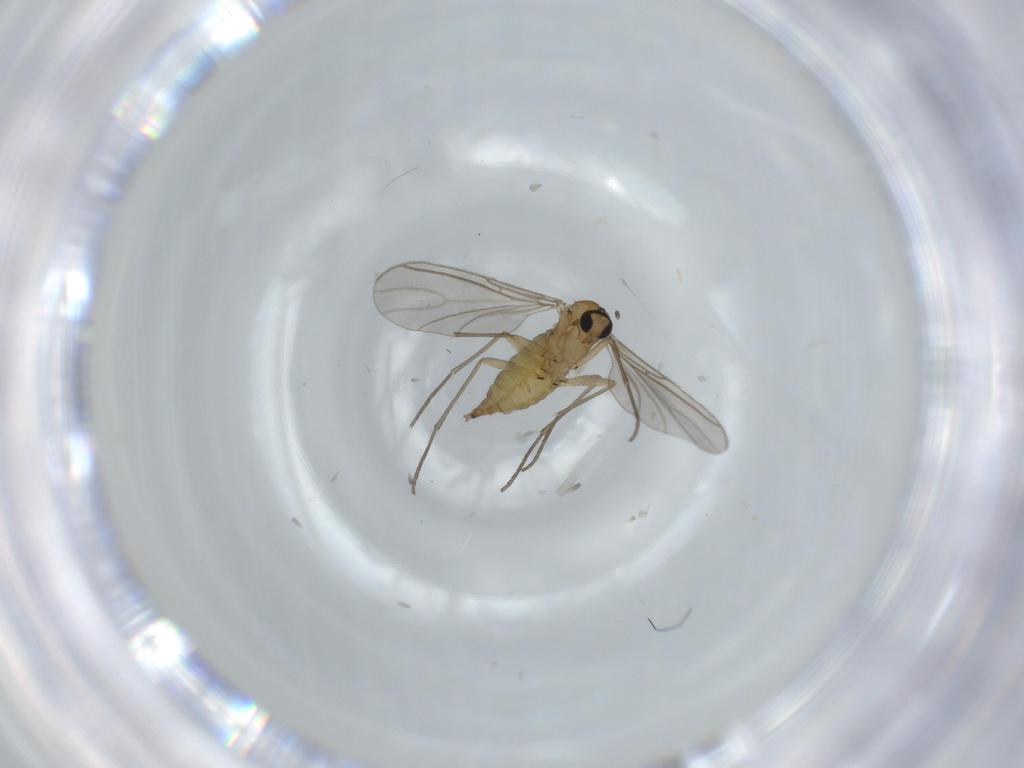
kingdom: Animalia
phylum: Arthropoda
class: Insecta
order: Diptera
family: Milichiidae
